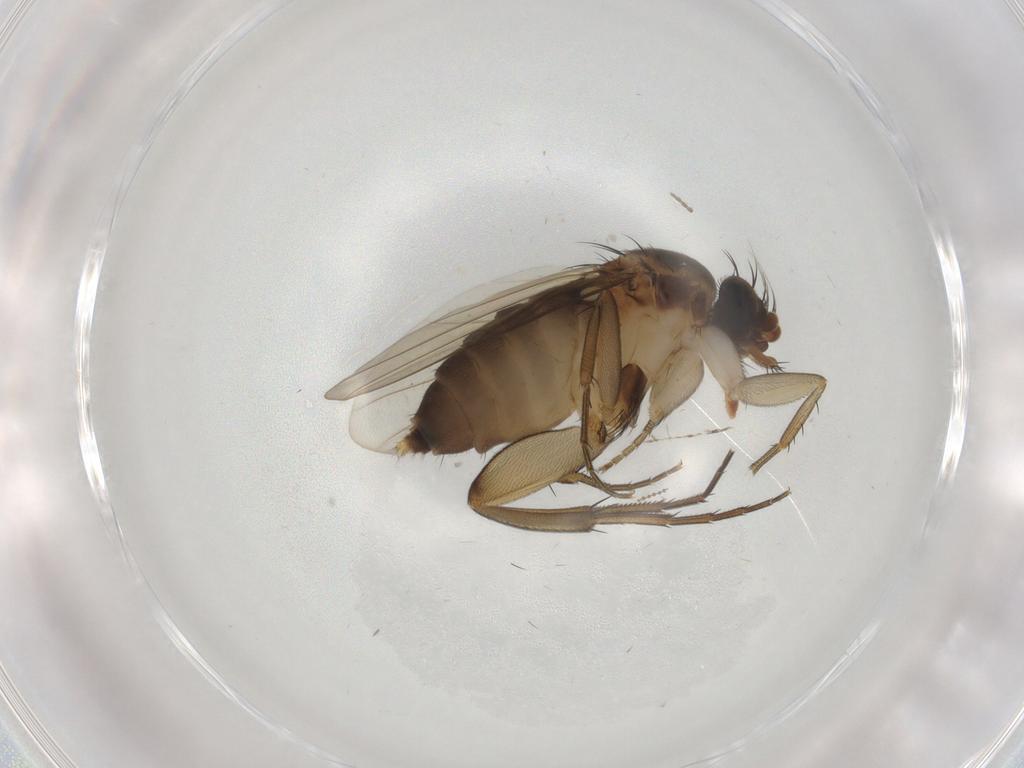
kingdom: Animalia
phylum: Arthropoda
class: Insecta
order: Diptera
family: Phoridae
